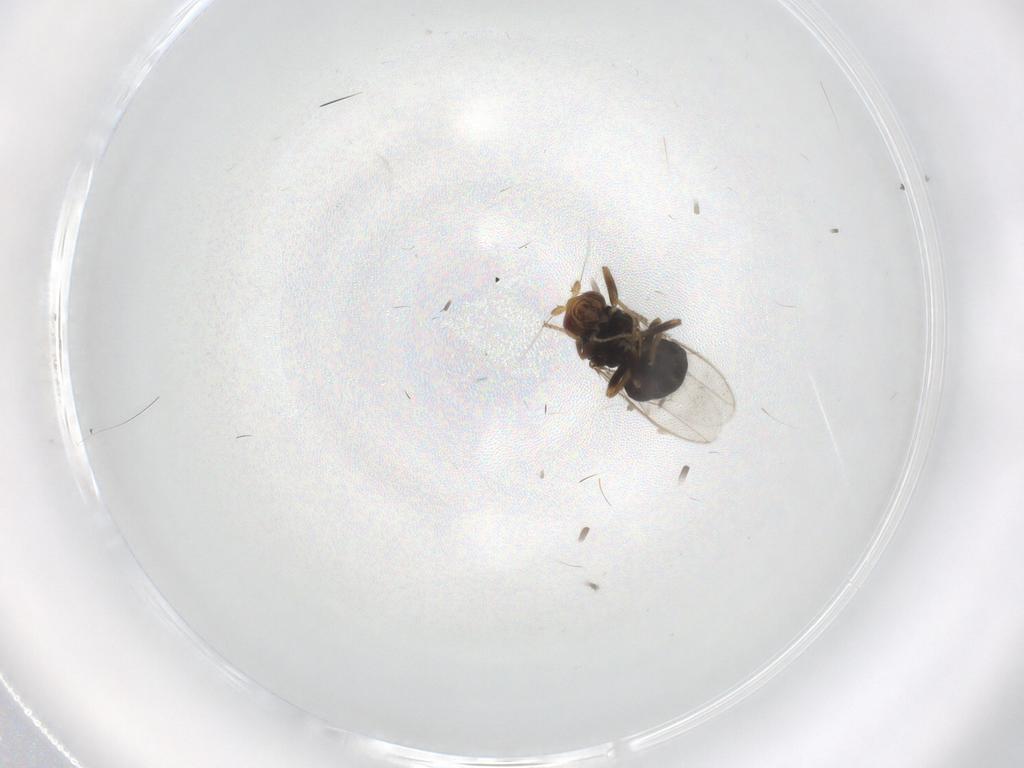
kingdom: Animalia
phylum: Arthropoda
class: Insecta
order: Diptera
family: Sphaeroceridae
